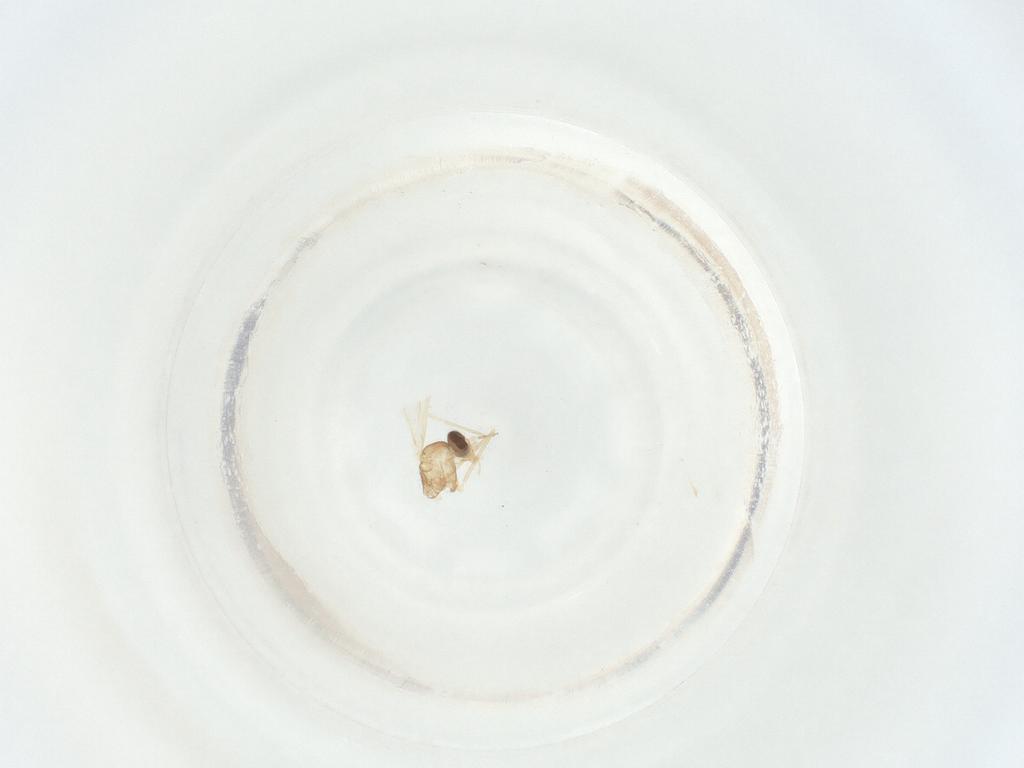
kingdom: Animalia
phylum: Arthropoda
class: Insecta
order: Diptera
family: Cecidomyiidae
